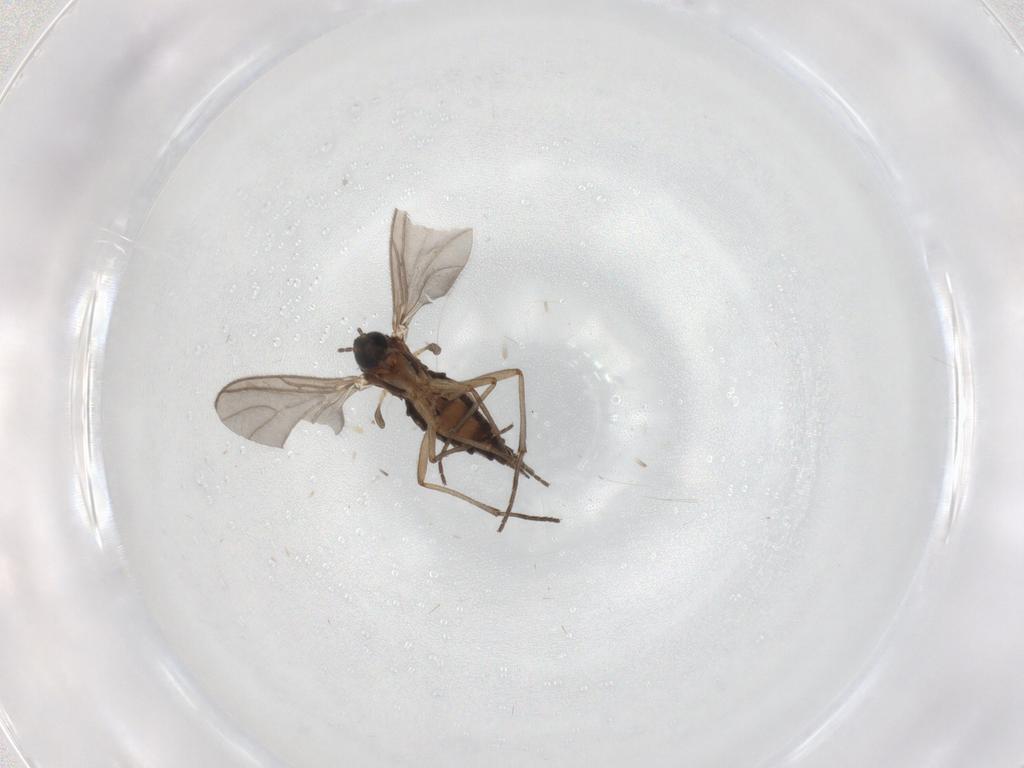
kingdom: Animalia
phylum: Arthropoda
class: Insecta
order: Diptera
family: Sciaridae
